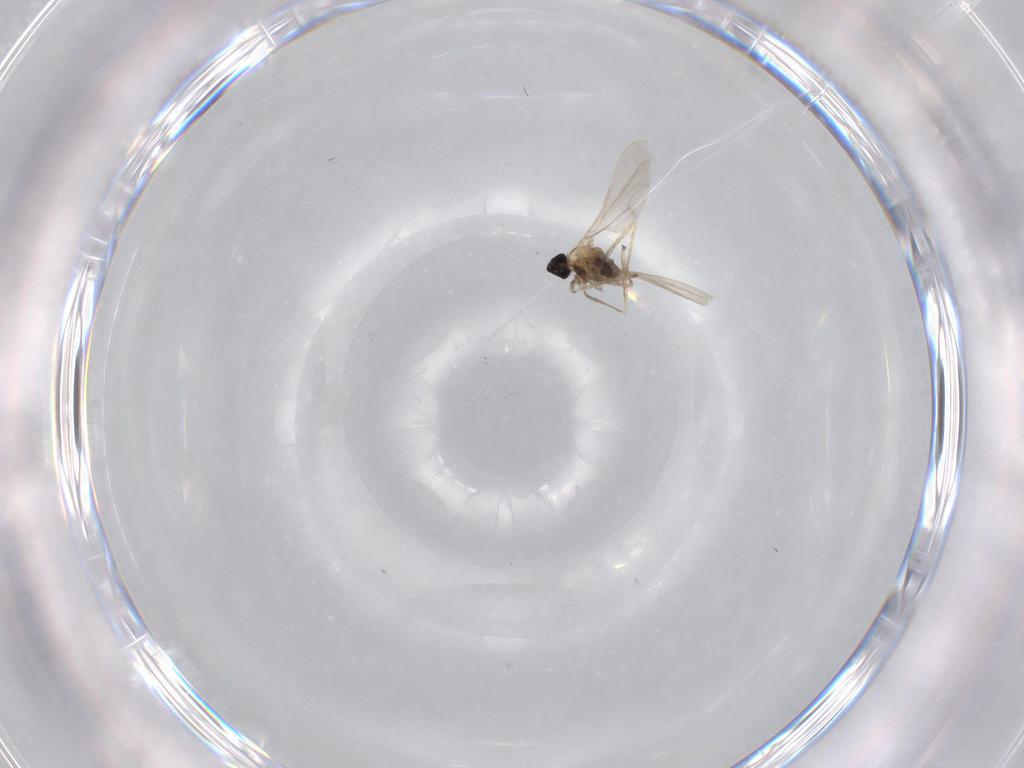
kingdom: Animalia
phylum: Arthropoda
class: Insecta
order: Diptera
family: Cecidomyiidae
